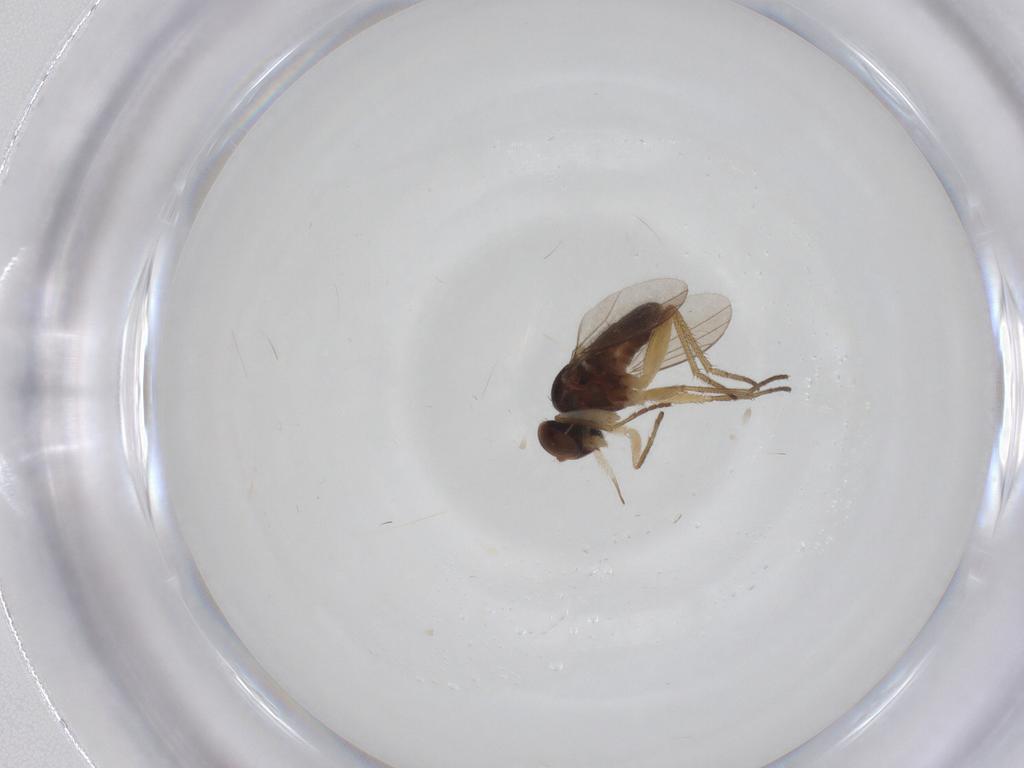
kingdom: Animalia
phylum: Arthropoda
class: Insecta
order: Diptera
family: Dolichopodidae
